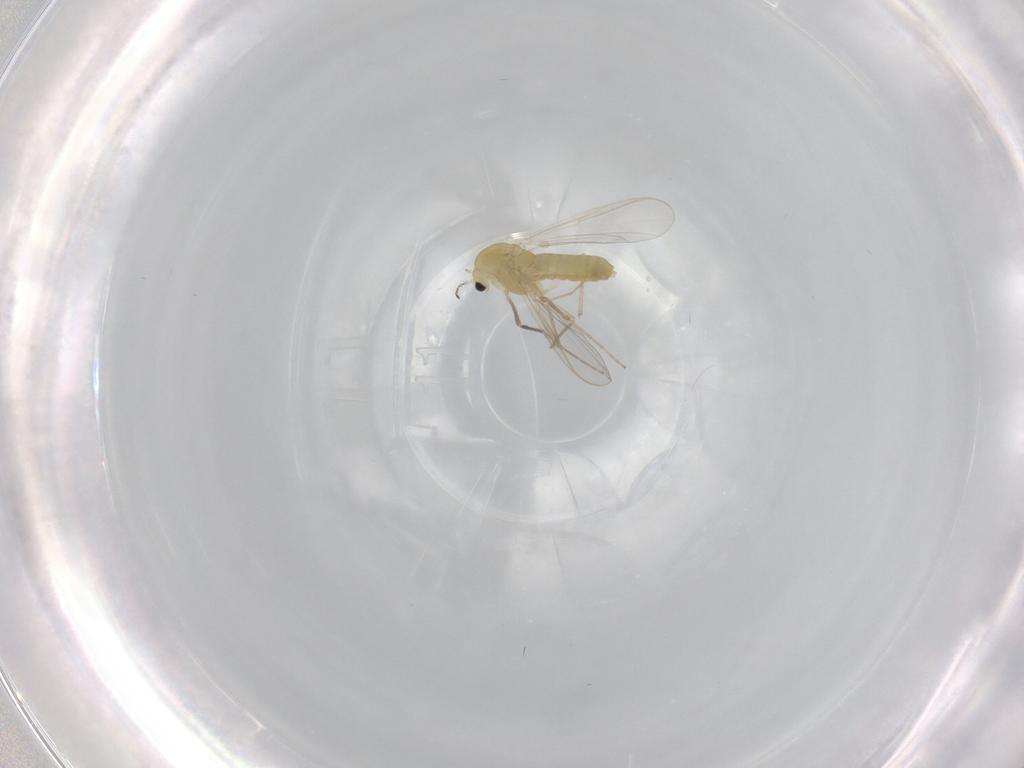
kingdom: Animalia
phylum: Arthropoda
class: Insecta
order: Diptera
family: Chironomidae
